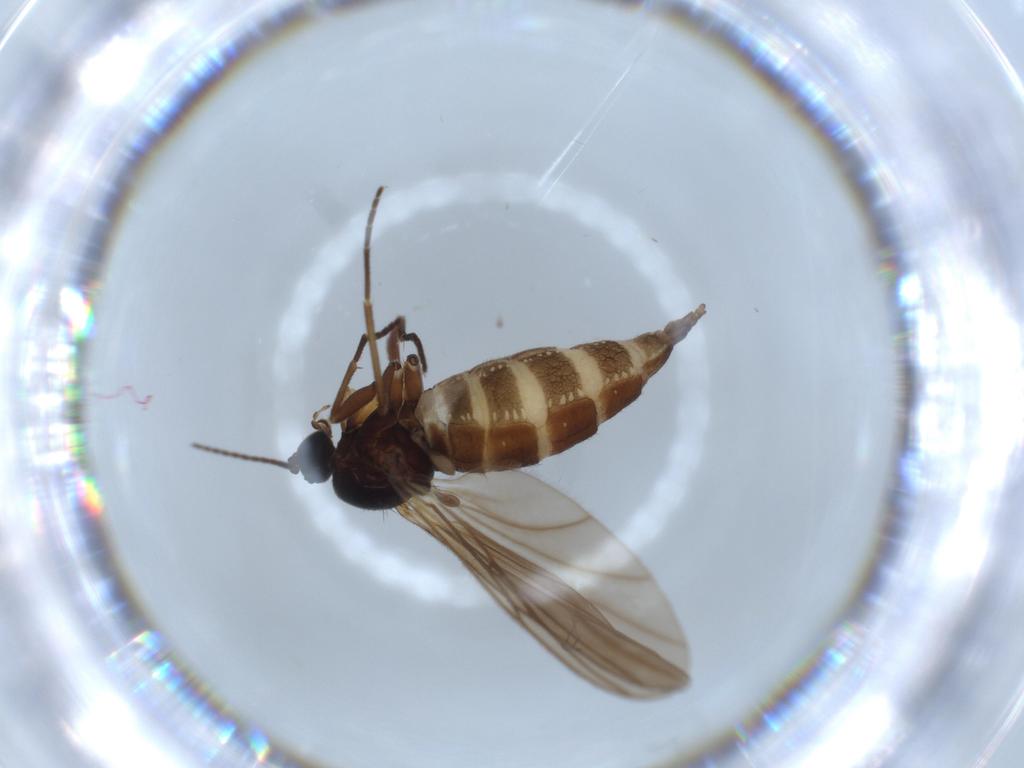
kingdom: Animalia
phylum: Arthropoda
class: Insecta
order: Diptera
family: Sciaridae
